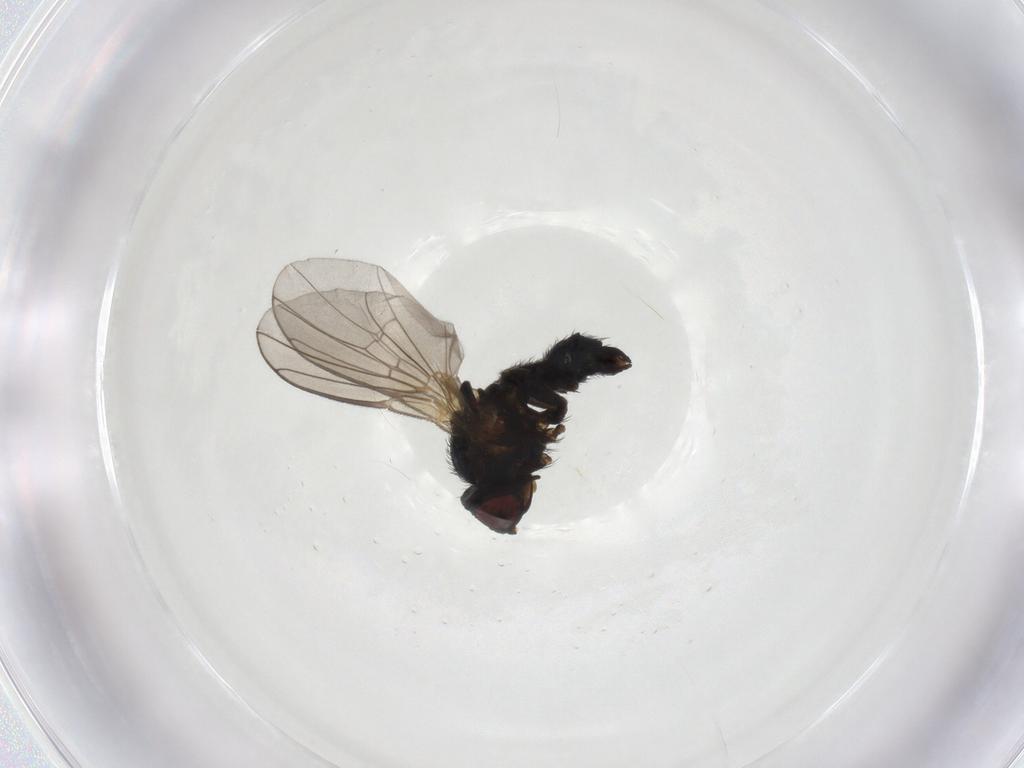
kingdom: Animalia
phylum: Arthropoda
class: Insecta
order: Diptera
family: Agromyzidae
